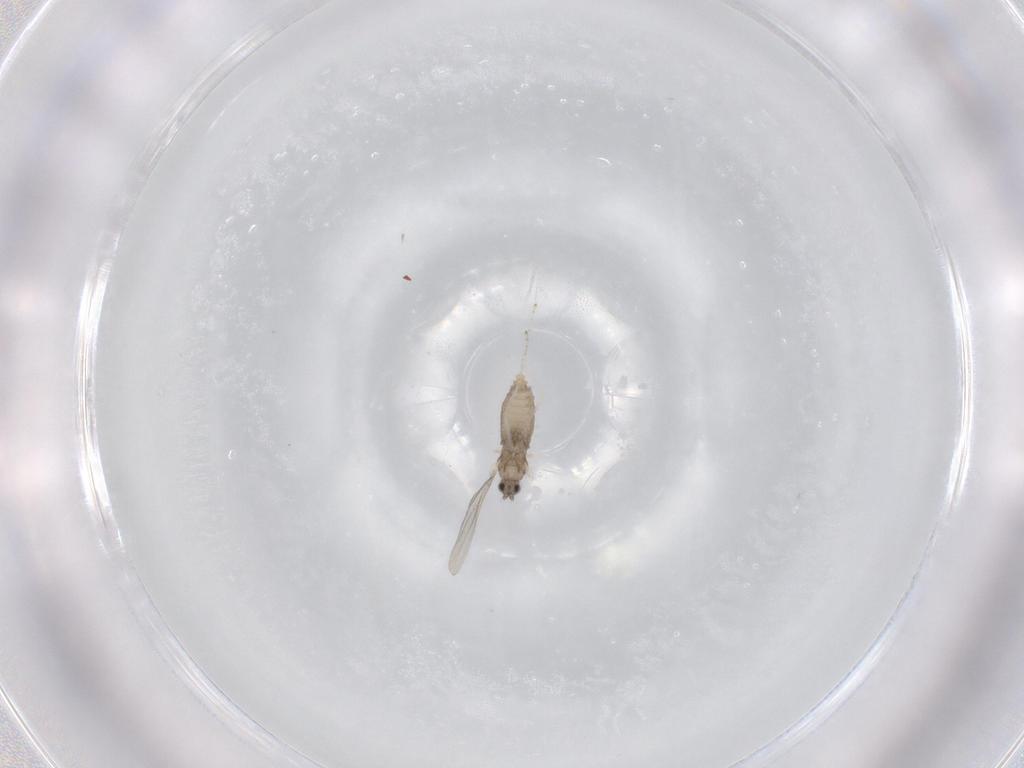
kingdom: Animalia
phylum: Arthropoda
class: Insecta
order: Diptera
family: Cecidomyiidae
